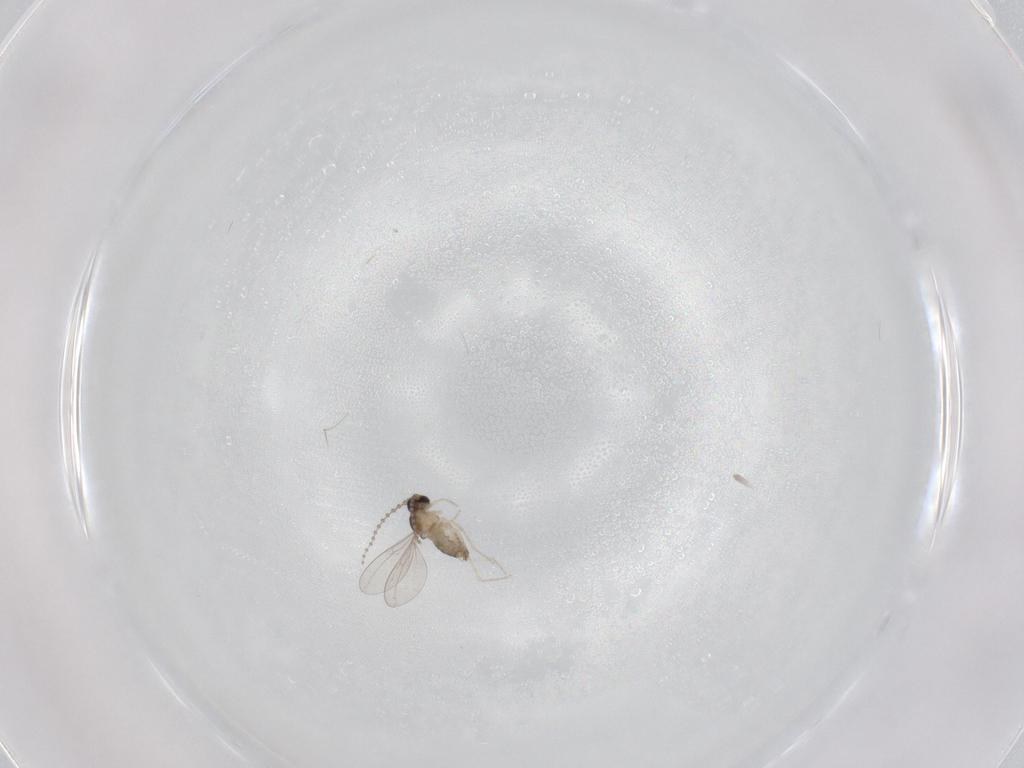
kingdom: Animalia
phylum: Arthropoda
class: Insecta
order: Diptera
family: Cecidomyiidae
